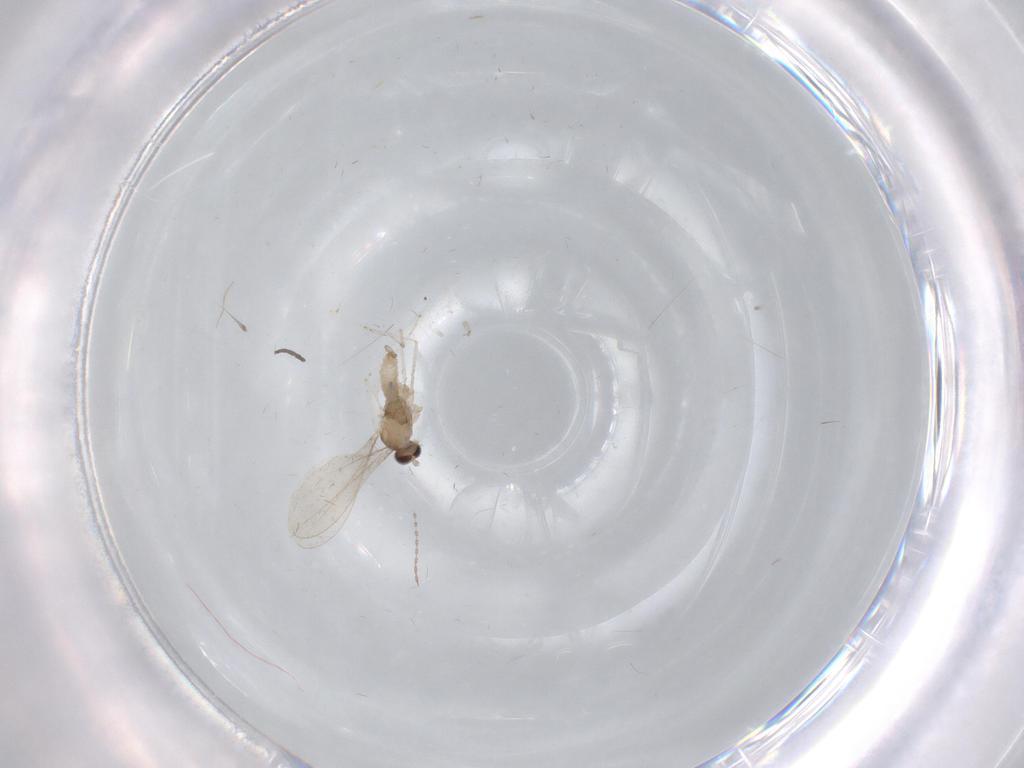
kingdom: Animalia
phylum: Arthropoda
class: Insecta
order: Diptera
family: Cecidomyiidae
